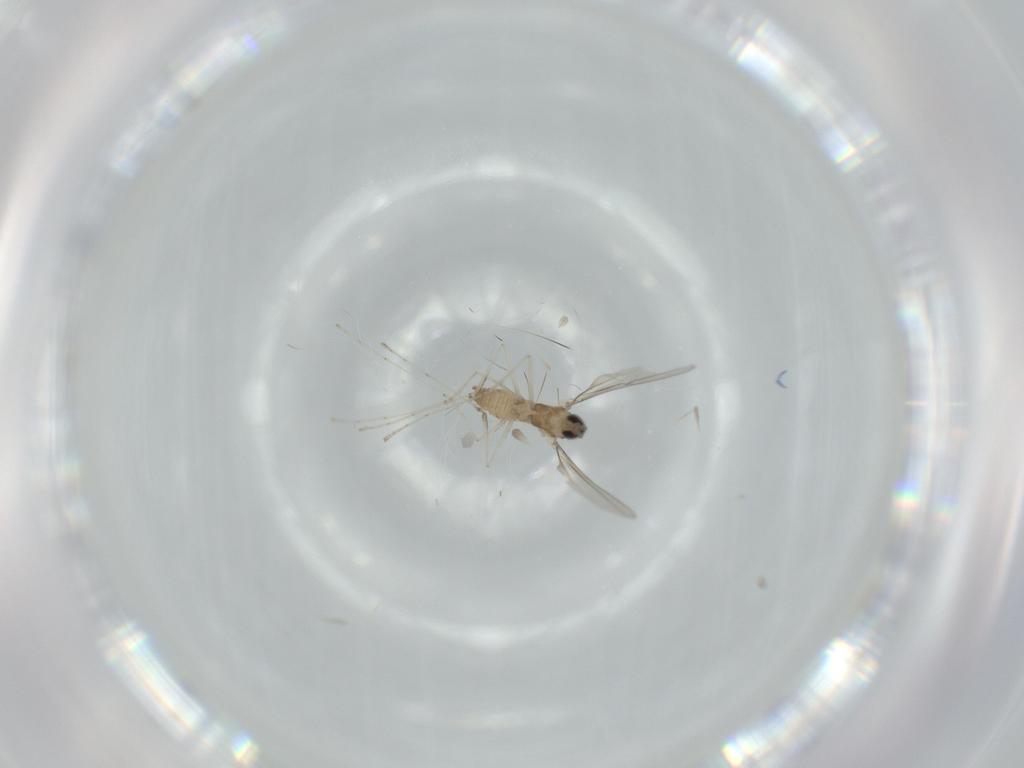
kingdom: Animalia
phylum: Arthropoda
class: Insecta
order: Diptera
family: Cecidomyiidae
